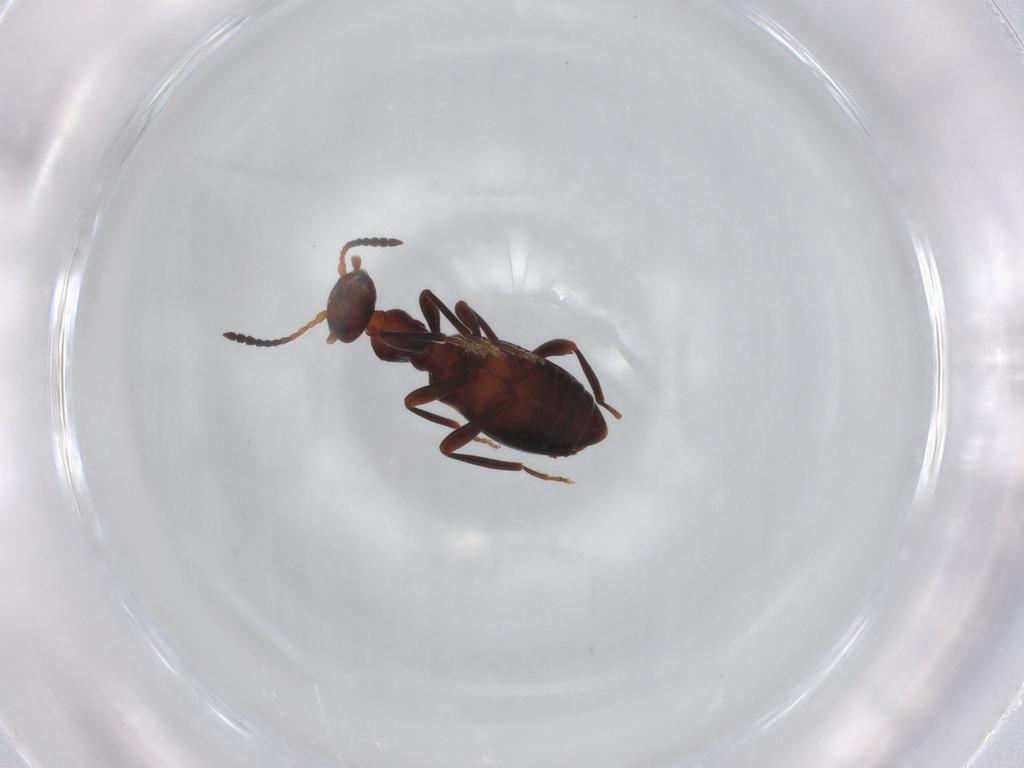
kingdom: Animalia
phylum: Arthropoda
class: Insecta
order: Coleoptera
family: Anthicidae
